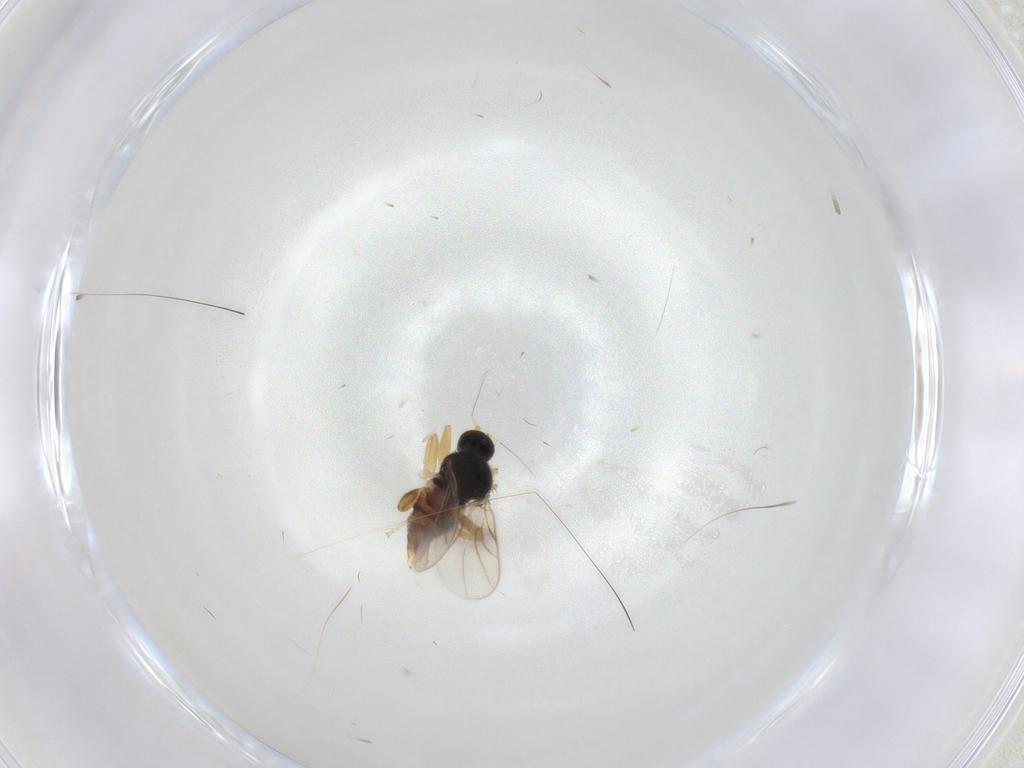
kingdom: Animalia
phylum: Arthropoda
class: Insecta
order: Diptera
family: Hybotidae
